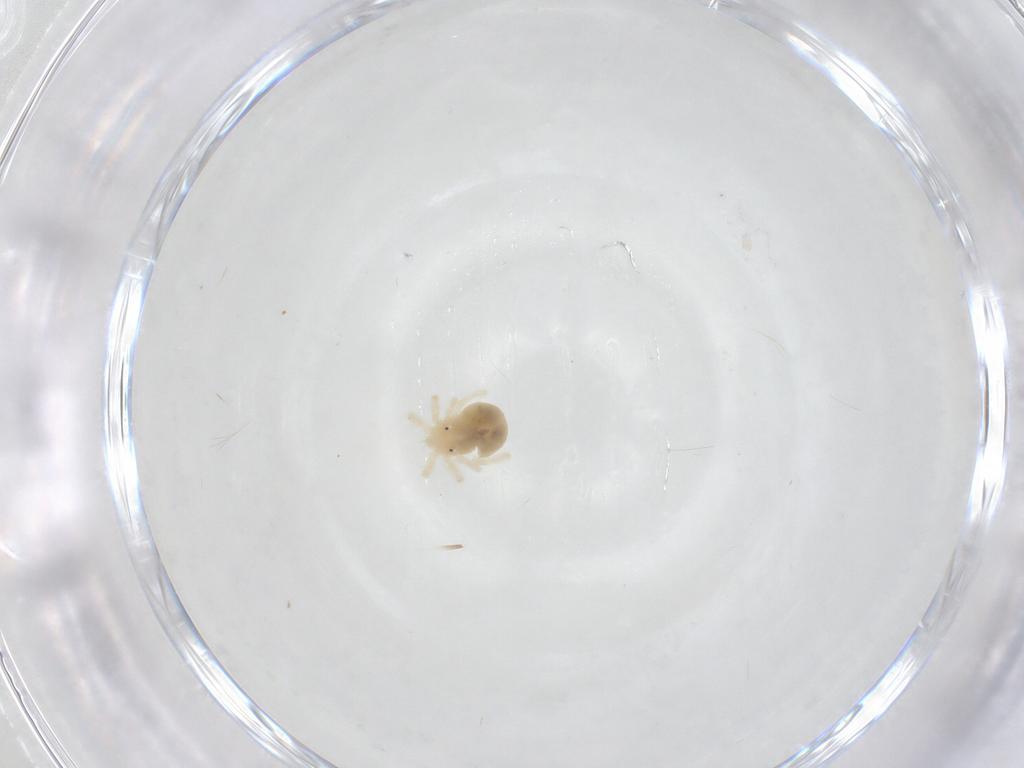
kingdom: Animalia
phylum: Arthropoda
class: Arachnida
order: Trombidiformes
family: Anystidae
